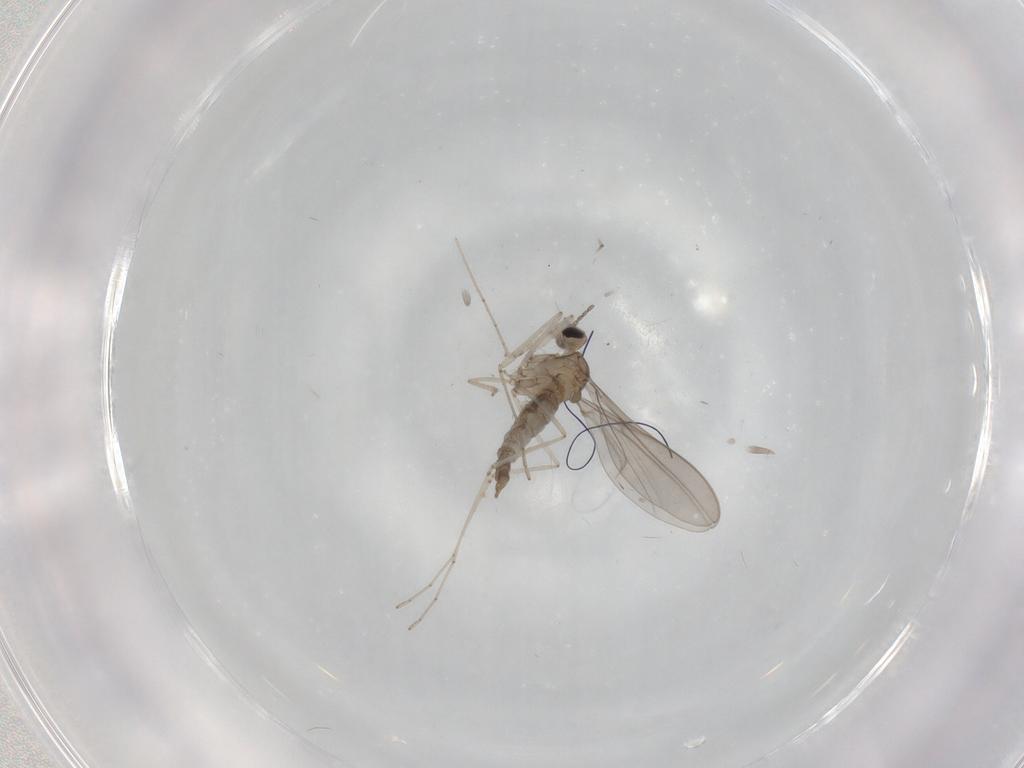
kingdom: Animalia
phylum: Arthropoda
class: Insecta
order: Diptera
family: Cecidomyiidae
